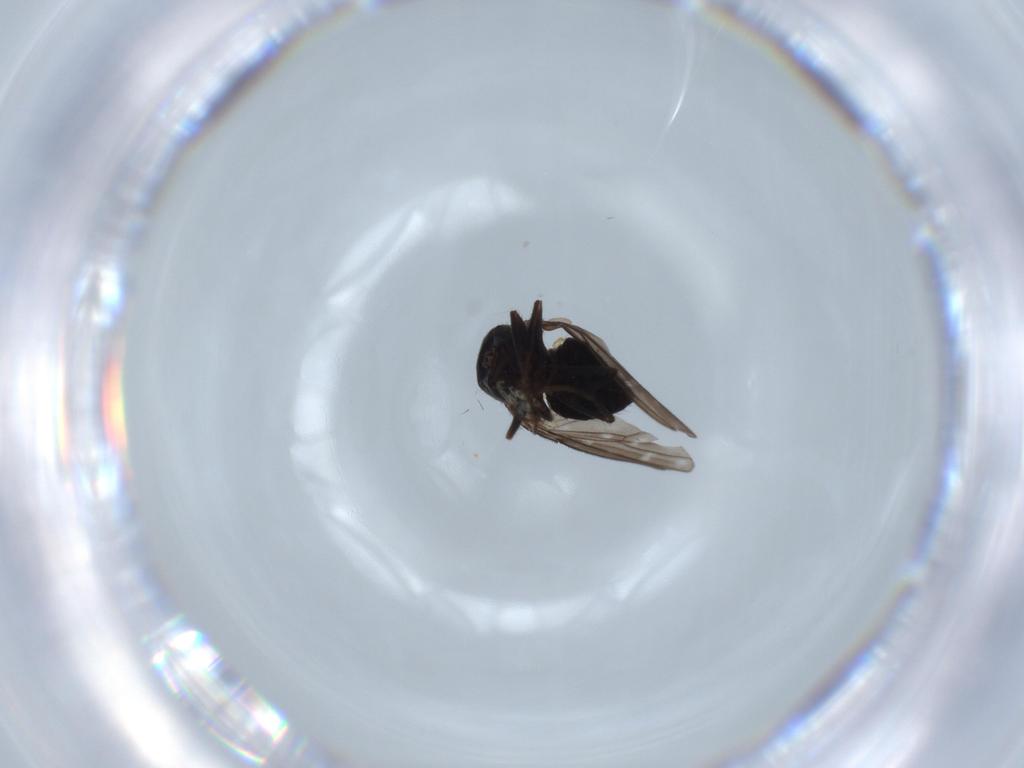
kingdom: Animalia
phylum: Arthropoda
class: Insecta
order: Diptera
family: Ephydridae
